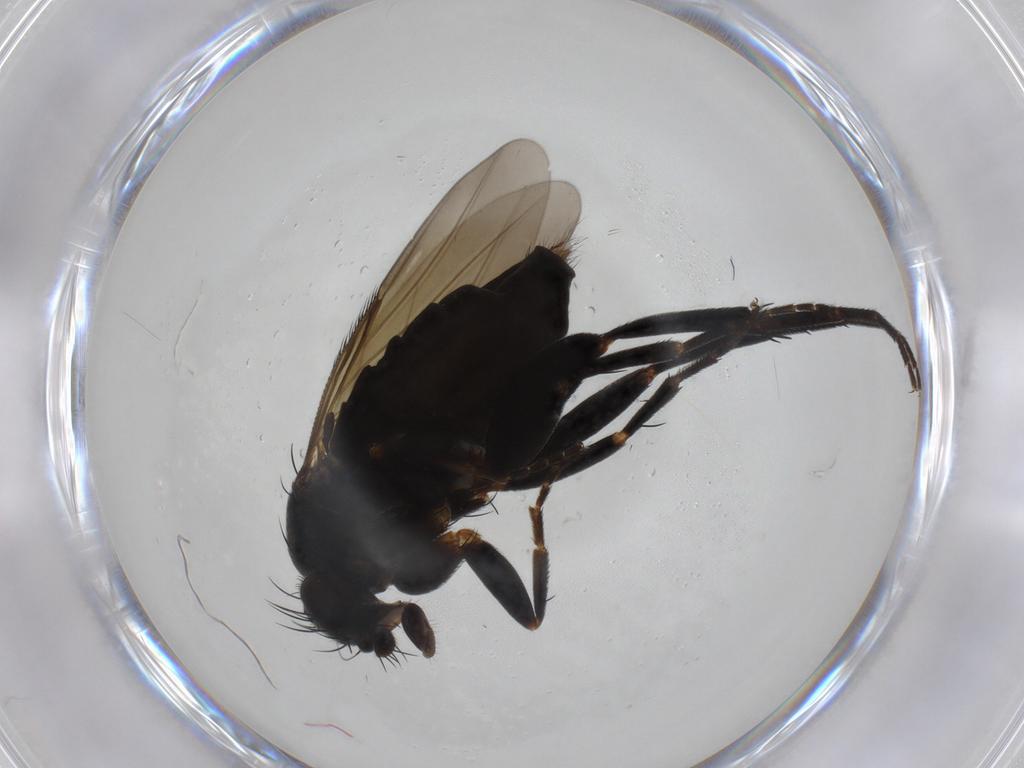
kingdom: Animalia
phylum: Arthropoda
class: Insecta
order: Diptera
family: Phoridae
